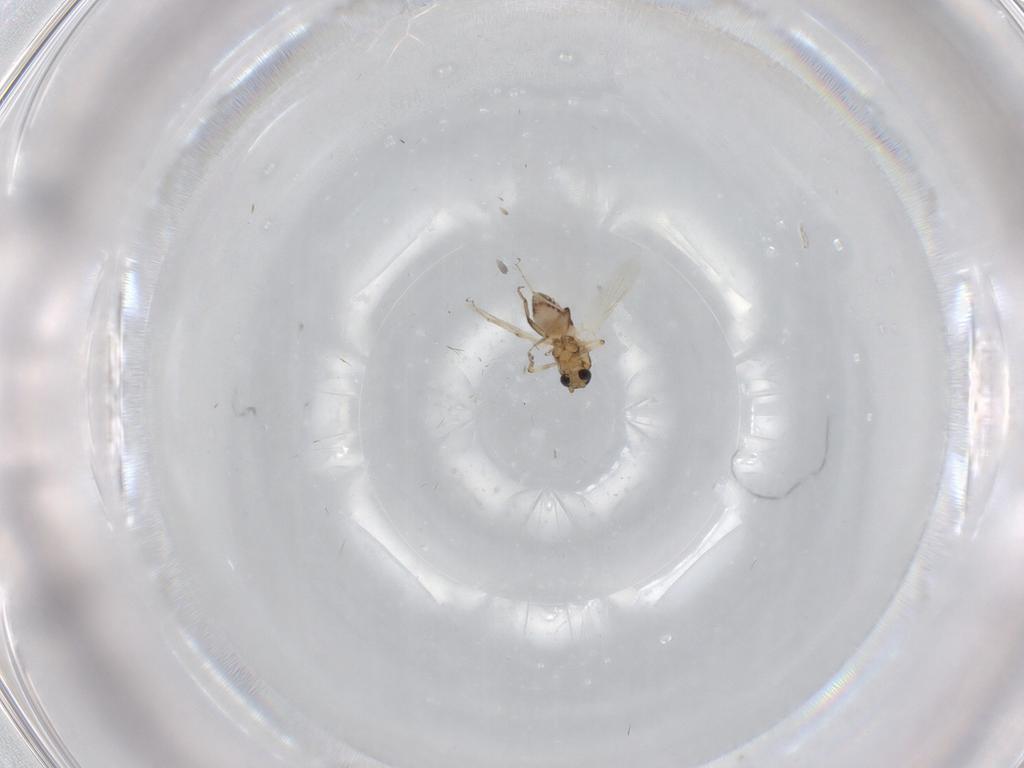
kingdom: Animalia
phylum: Arthropoda
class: Insecta
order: Diptera
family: Ceratopogonidae
